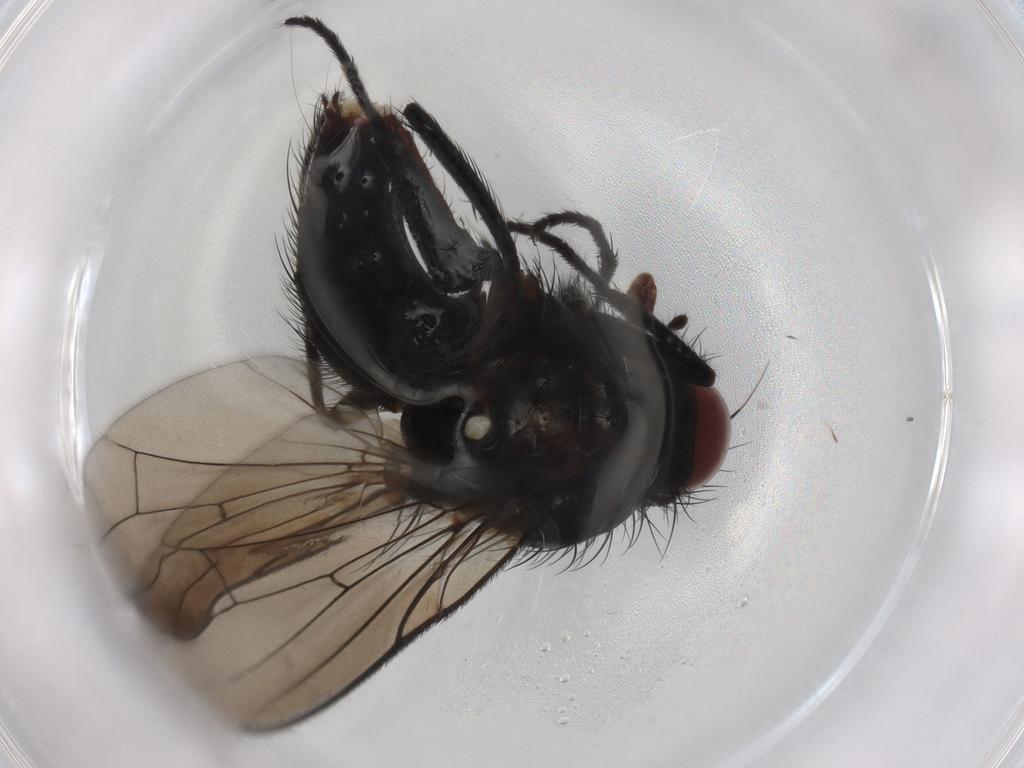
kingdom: Animalia
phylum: Arthropoda
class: Insecta
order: Diptera
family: Anthomyiidae
